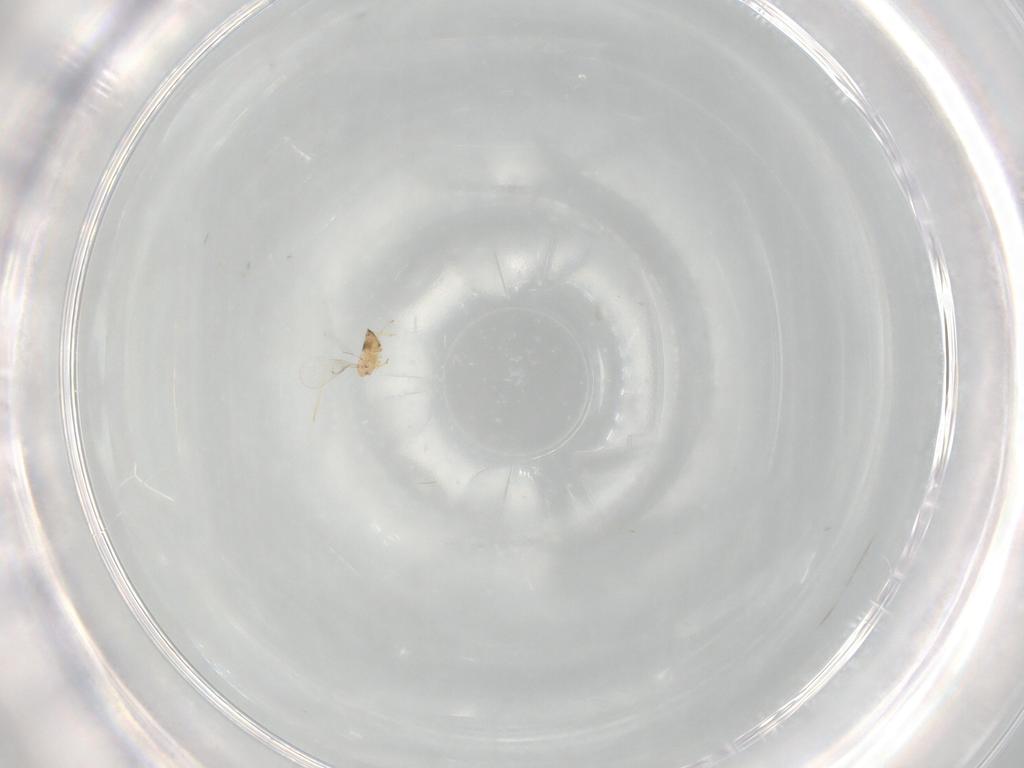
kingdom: Animalia
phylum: Arthropoda
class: Insecta
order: Hymenoptera
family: Trichogrammatidae
